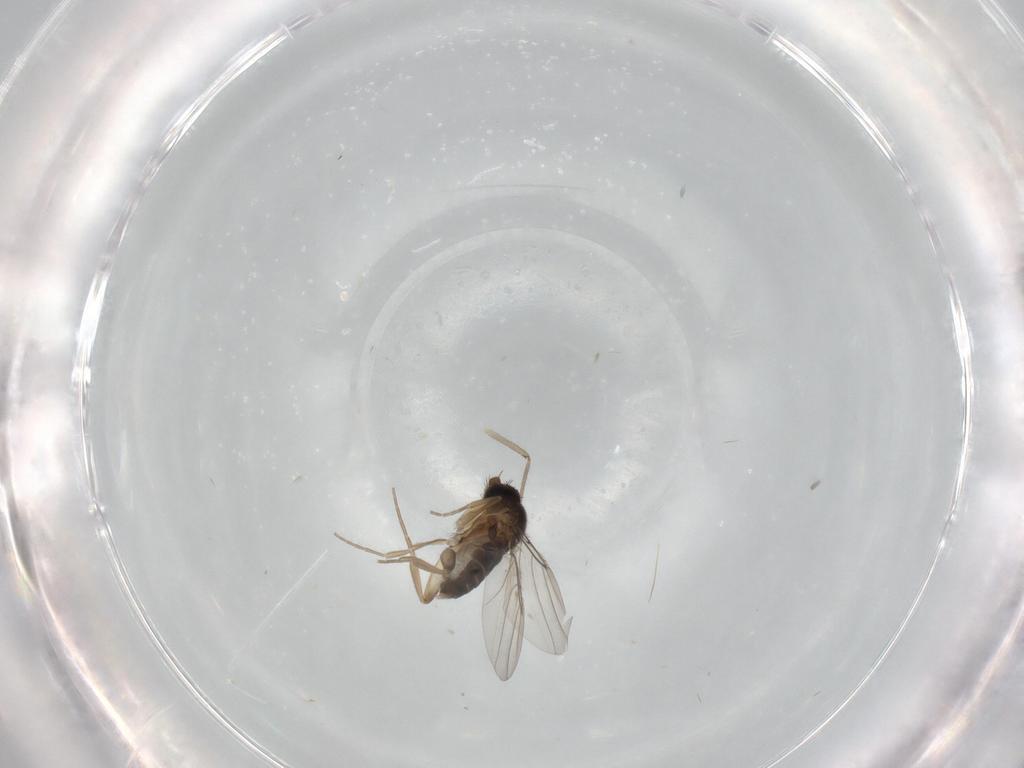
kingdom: Animalia
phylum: Arthropoda
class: Insecta
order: Diptera
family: Phoridae
